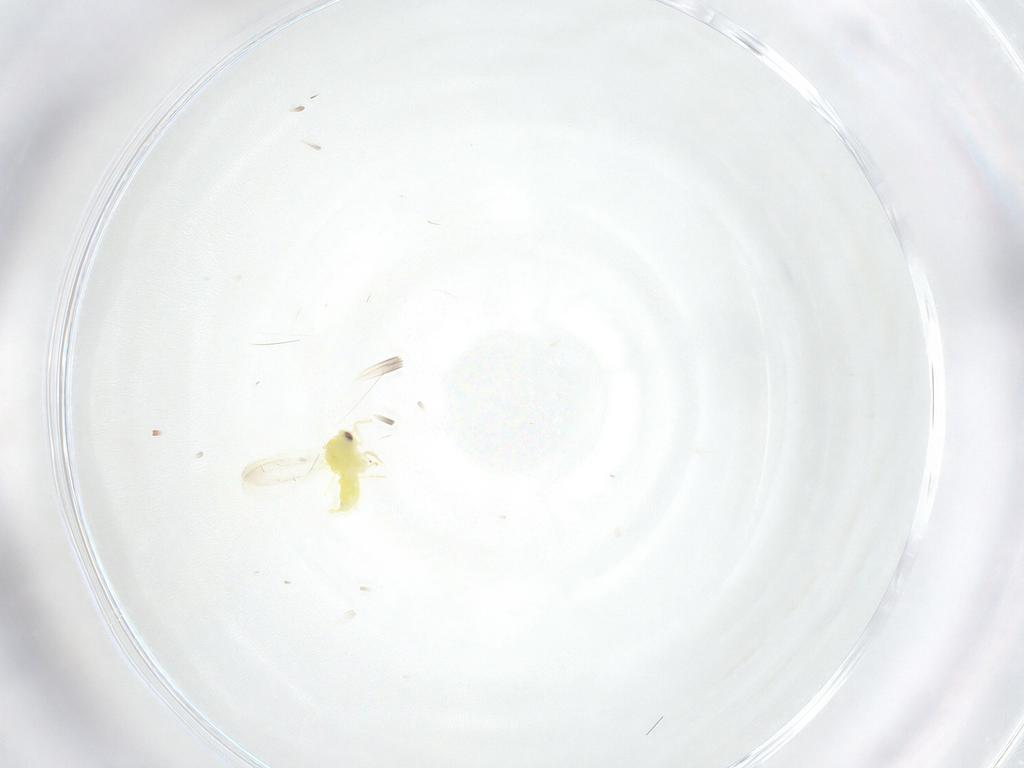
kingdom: Animalia
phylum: Arthropoda
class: Insecta
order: Hemiptera
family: Aleyrodidae
